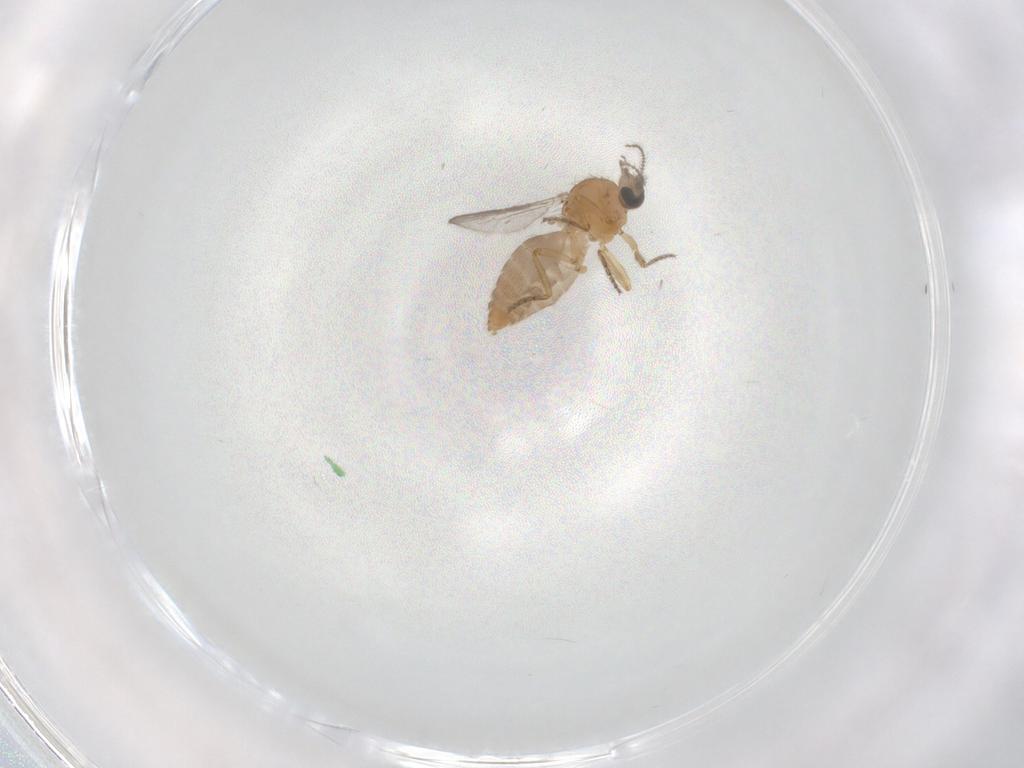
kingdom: Animalia
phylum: Arthropoda
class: Insecta
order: Diptera
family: Ceratopogonidae
